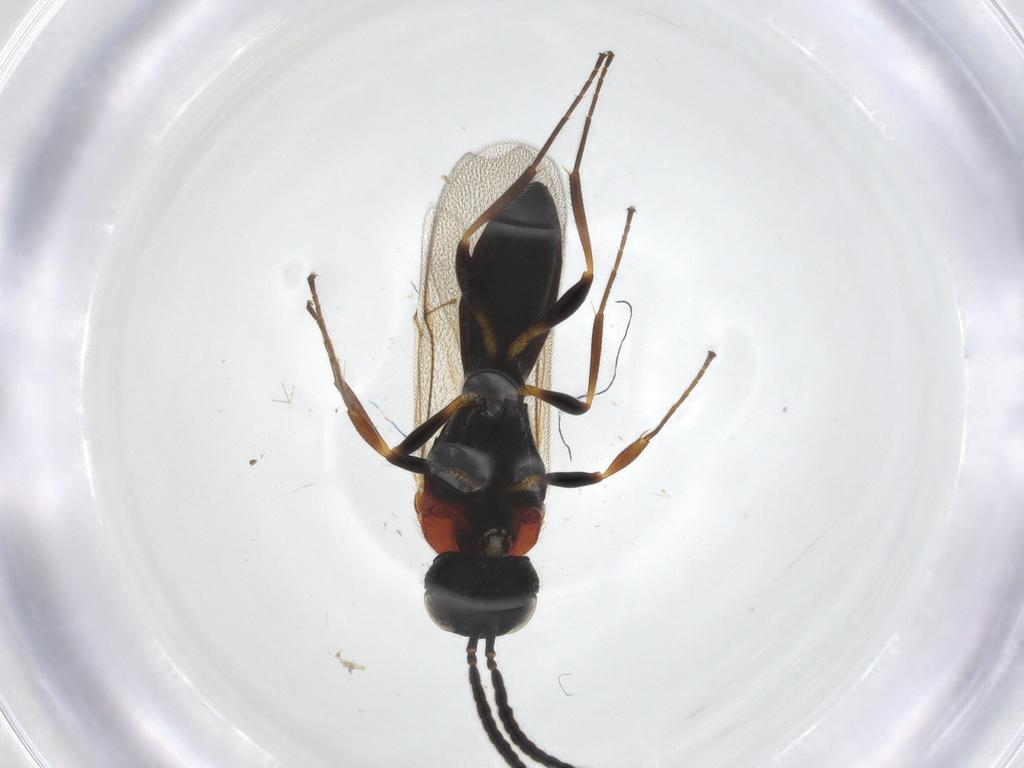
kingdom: Animalia
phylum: Arthropoda
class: Insecta
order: Hymenoptera
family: Scelionidae
